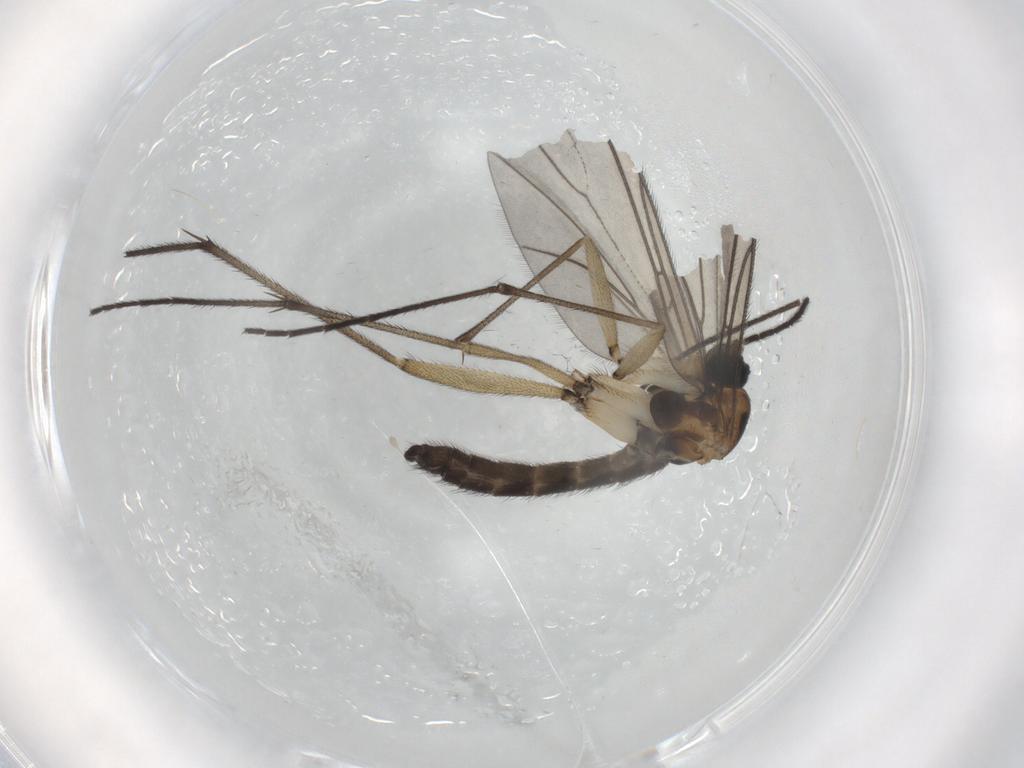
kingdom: Animalia
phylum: Arthropoda
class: Insecta
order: Diptera
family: Sciaridae
